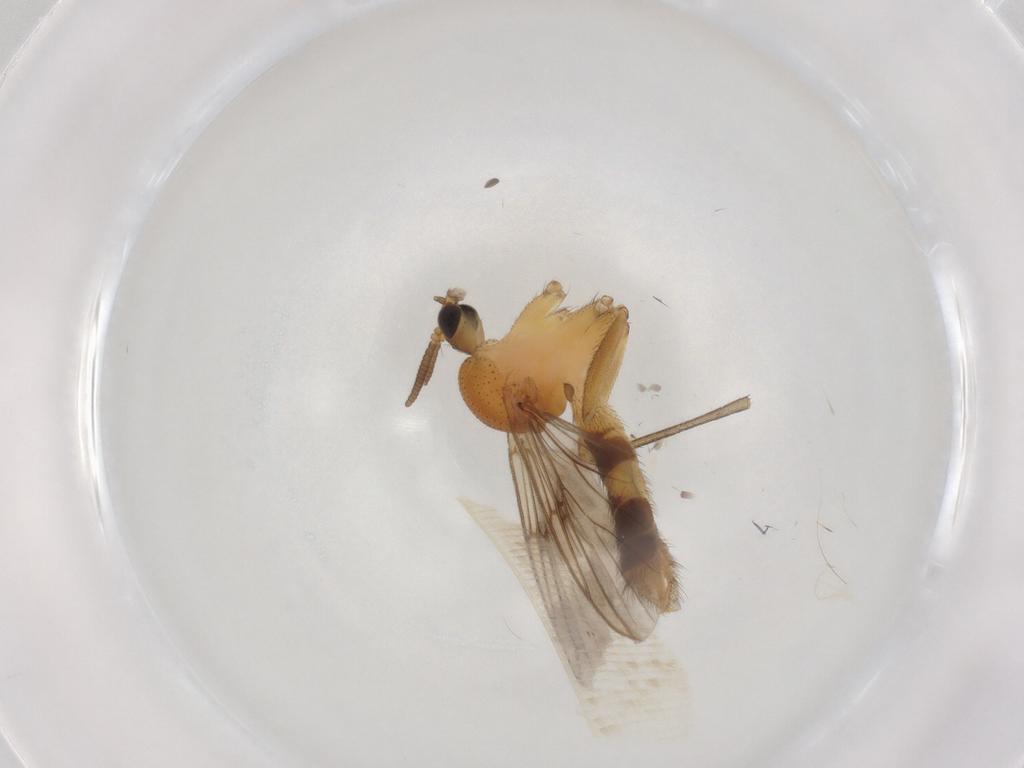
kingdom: Animalia
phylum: Arthropoda
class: Insecta
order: Diptera
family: Mycetophilidae
